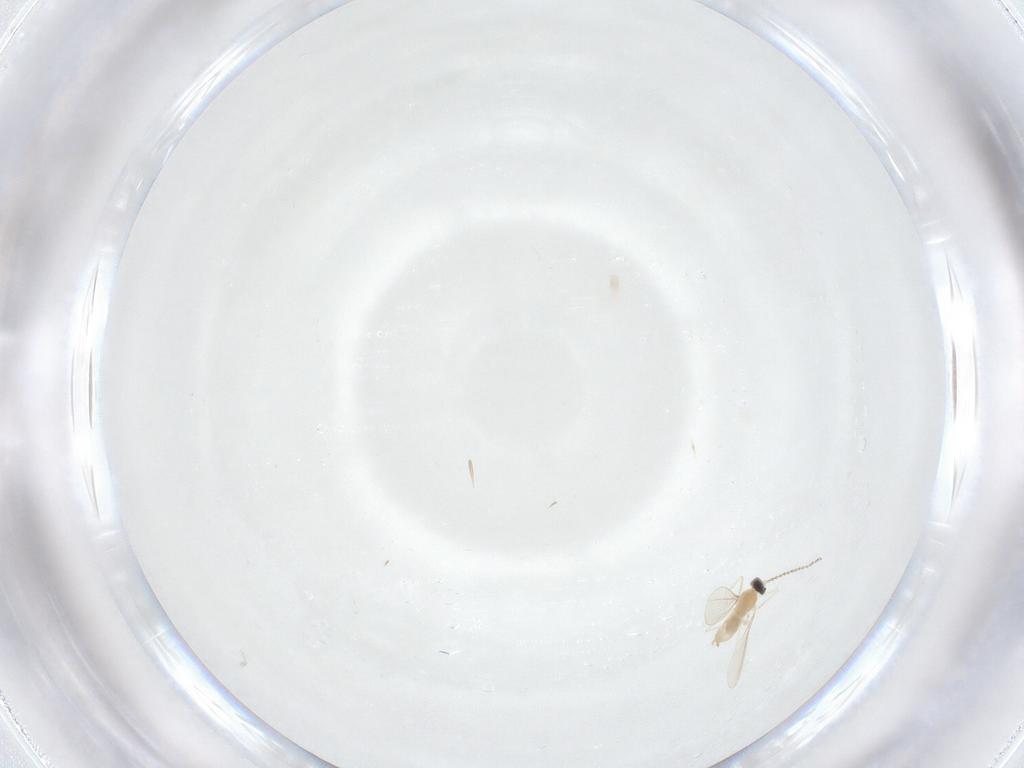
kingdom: Animalia
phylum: Arthropoda
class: Insecta
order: Diptera
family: Cecidomyiidae
